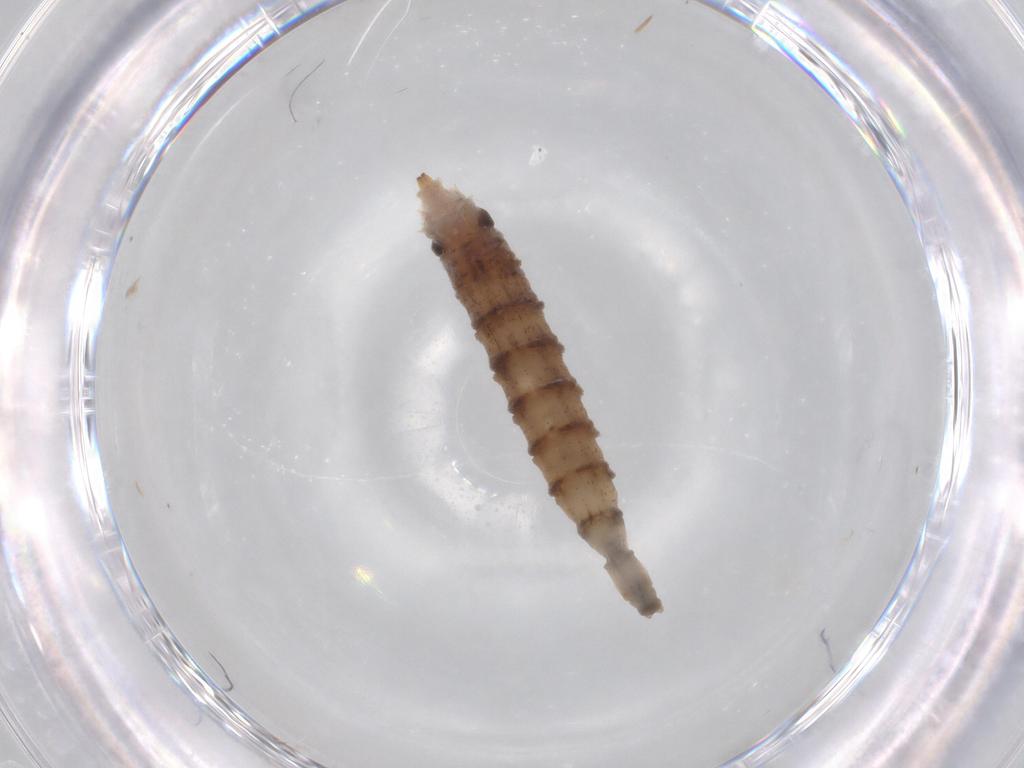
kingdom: Animalia
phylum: Arthropoda
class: Insecta
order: Diptera
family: Drosophilidae
